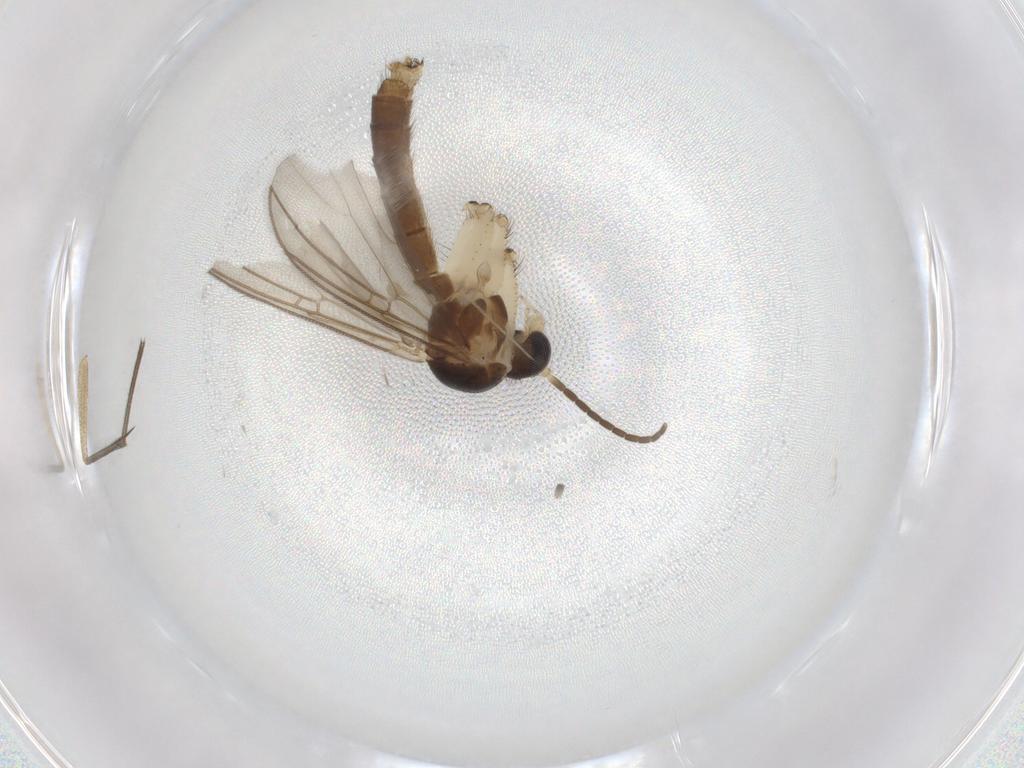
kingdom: Animalia
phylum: Arthropoda
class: Insecta
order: Diptera
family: Mycetophilidae
